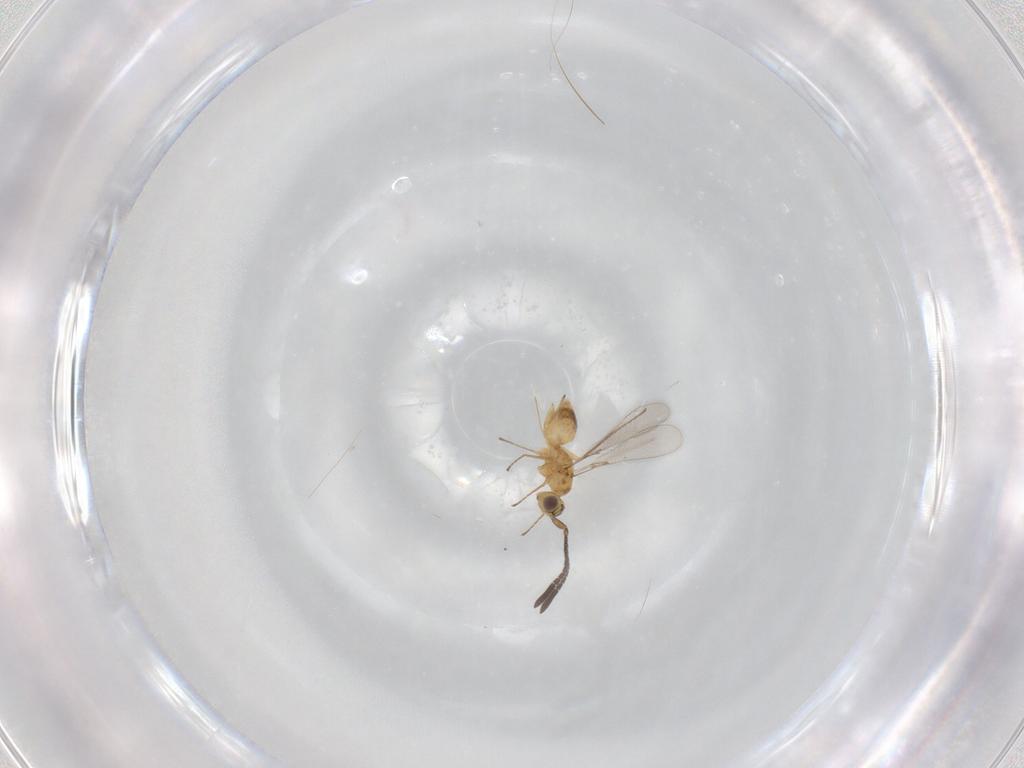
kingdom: Animalia
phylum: Arthropoda
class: Insecta
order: Hymenoptera
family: Mymaridae
